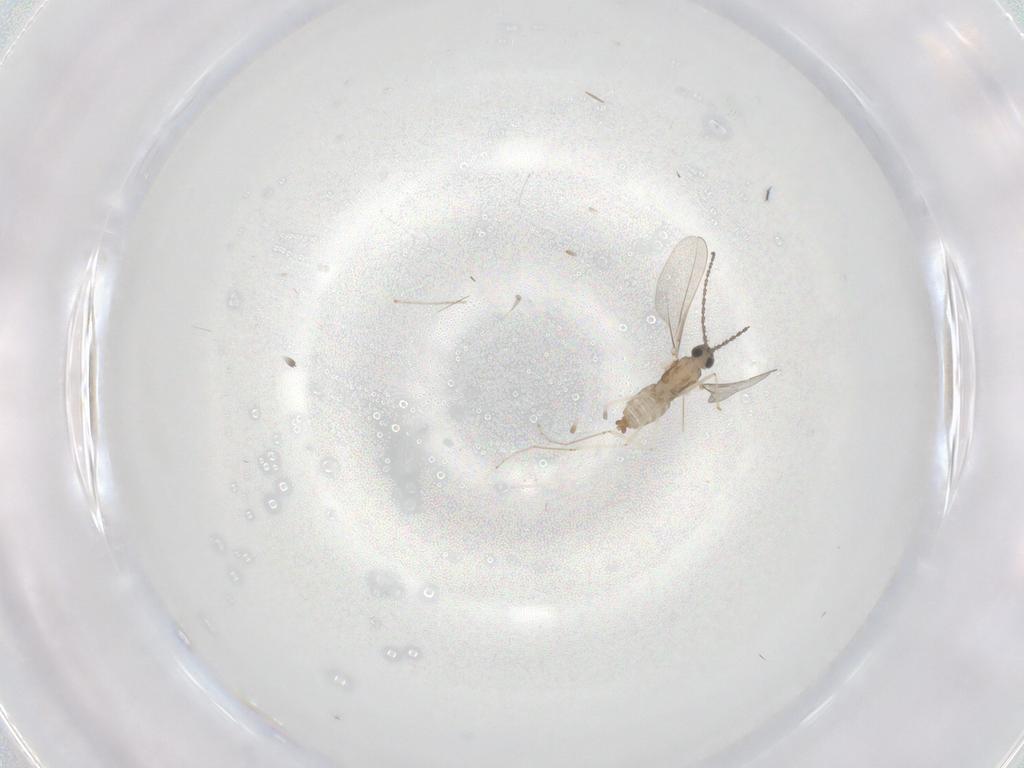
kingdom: Animalia
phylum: Arthropoda
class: Insecta
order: Diptera
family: Cecidomyiidae
